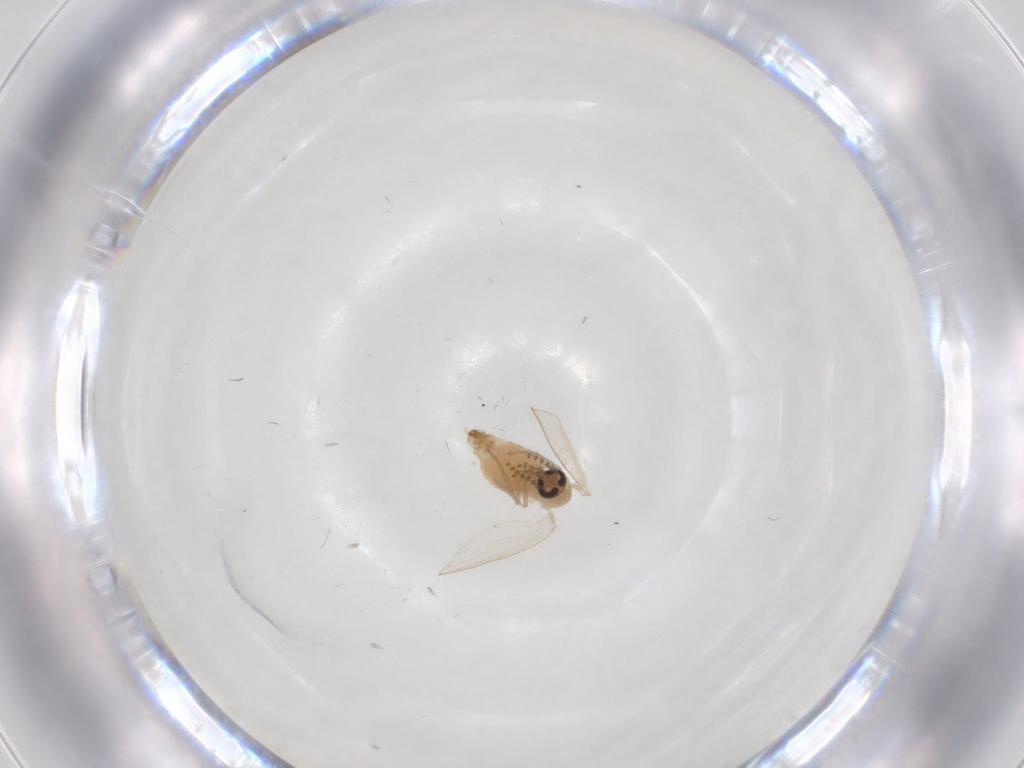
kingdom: Animalia
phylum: Arthropoda
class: Insecta
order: Diptera
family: Psychodidae
